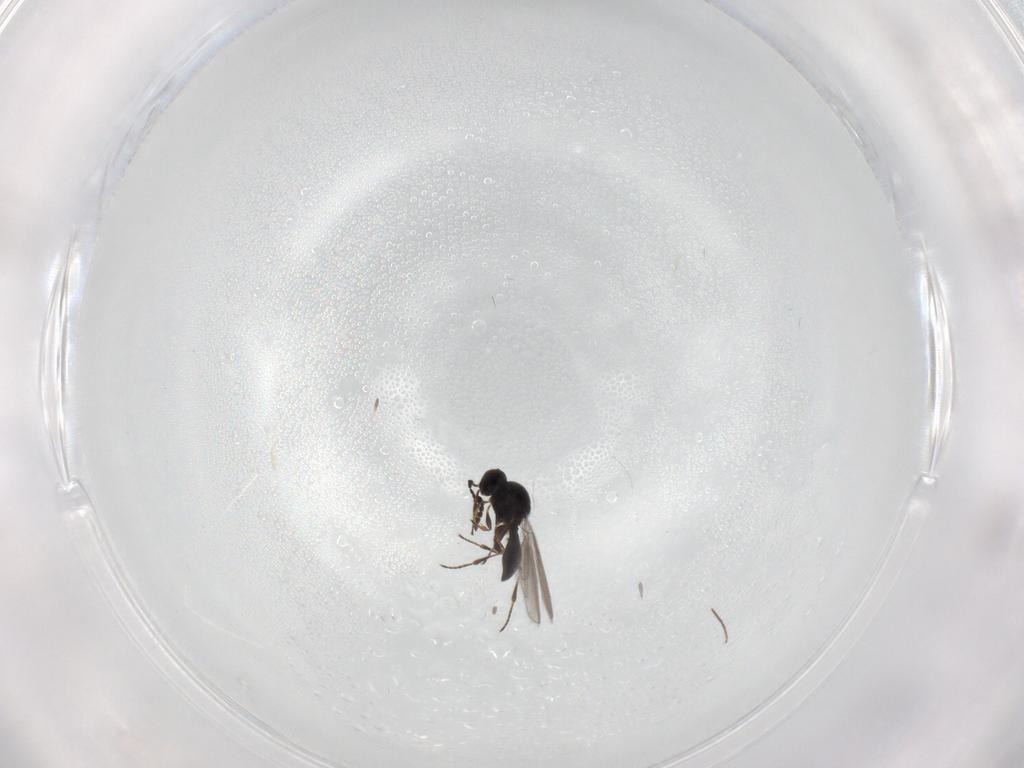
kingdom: Animalia
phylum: Arthropoda
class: Insecta
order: Hymenoptera
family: Platygastridae
